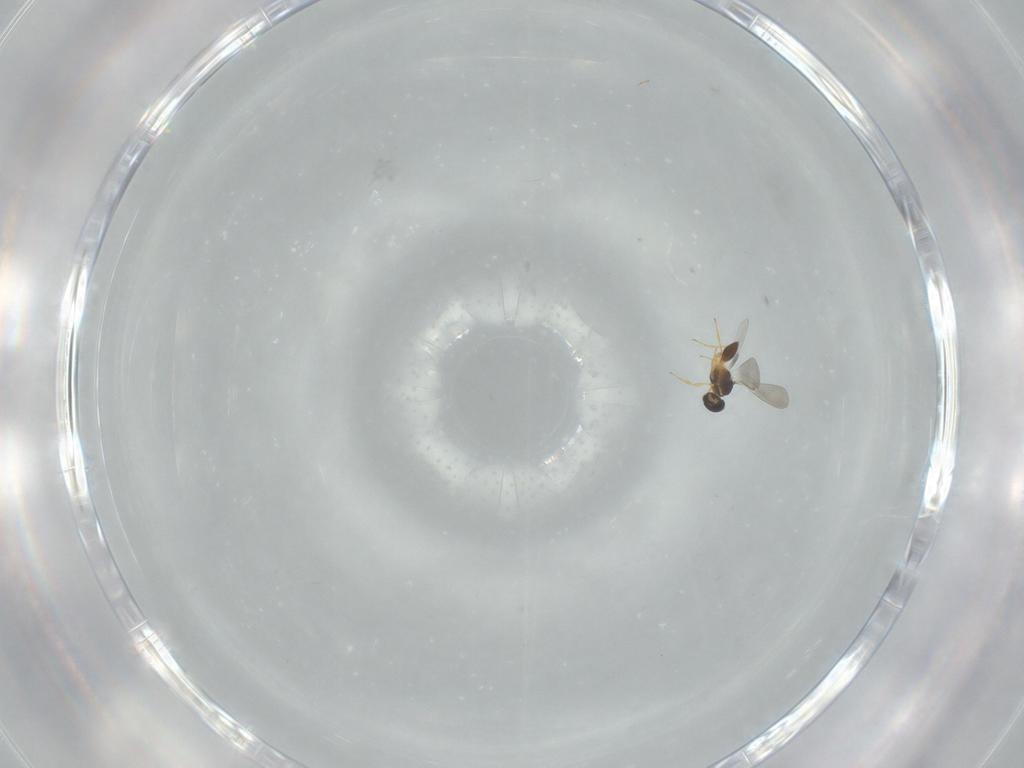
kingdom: Animalia
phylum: Arthropoda
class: Insecta
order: Hymenoptera
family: Platygastridae
